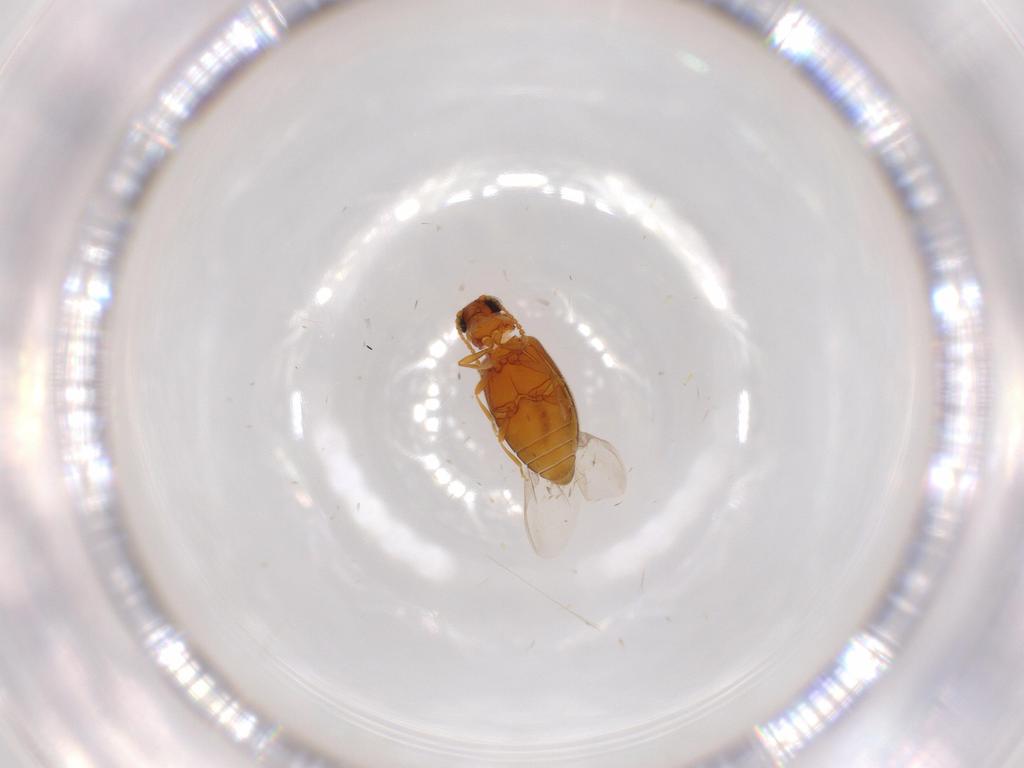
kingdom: Animalia
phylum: Arthropoda
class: Insecta
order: Coleoptera
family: Aderidae
